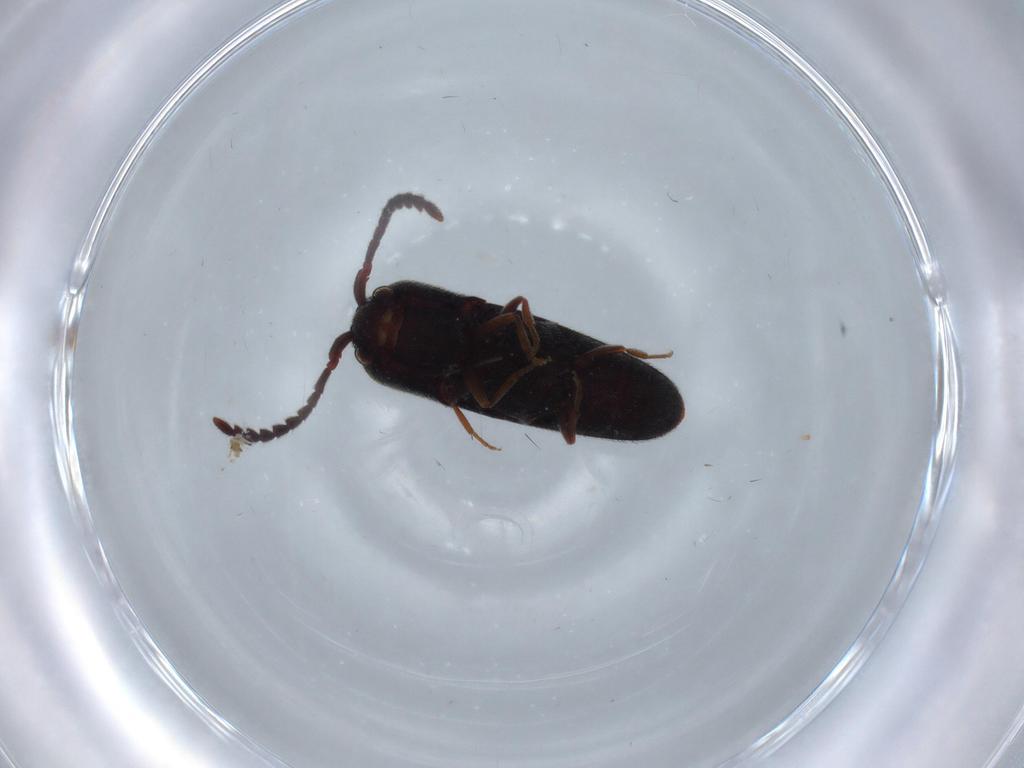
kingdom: Animalia
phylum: Arthropoda
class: Insecta
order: Coleoptera
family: Eucnemidae
